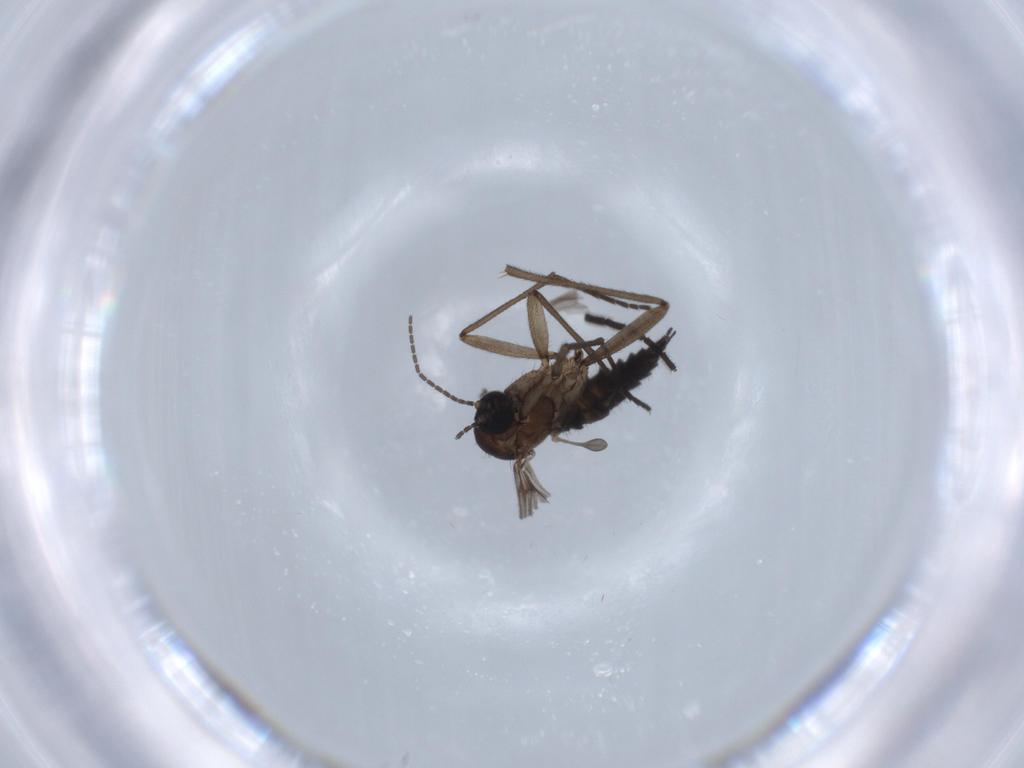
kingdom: Animalia
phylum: Arthropoda
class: Insecta
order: Diptera
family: Sciaridae
